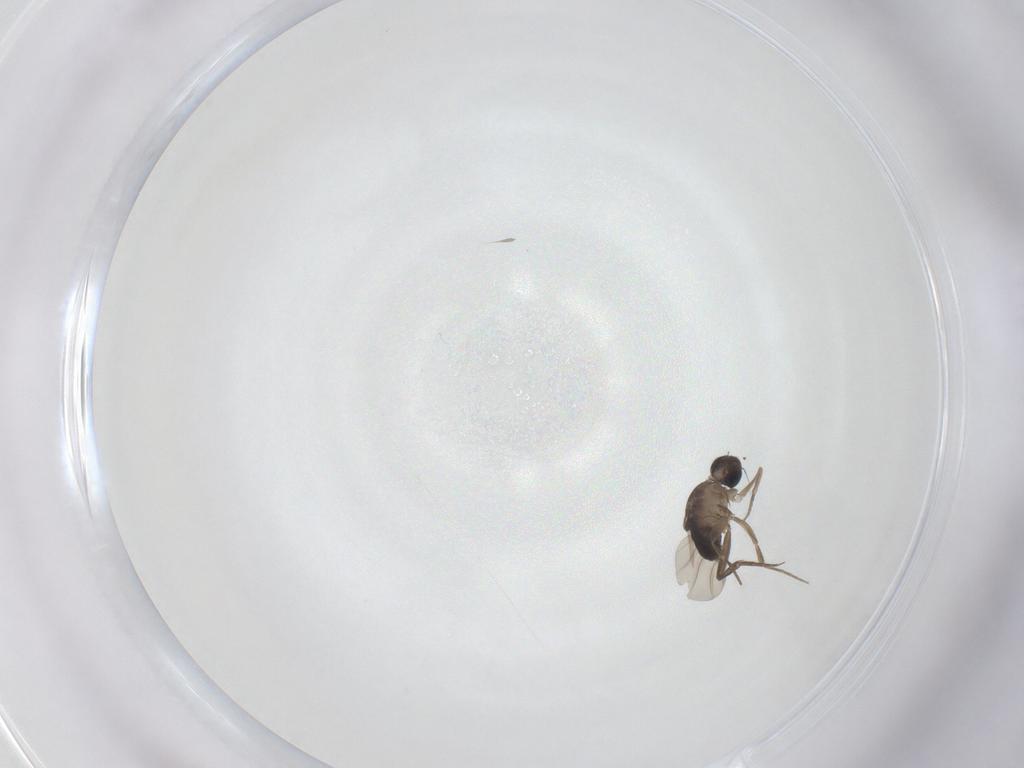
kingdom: Animalia
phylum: Arthropoda
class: Insecta
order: Diptera
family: Phoridae
